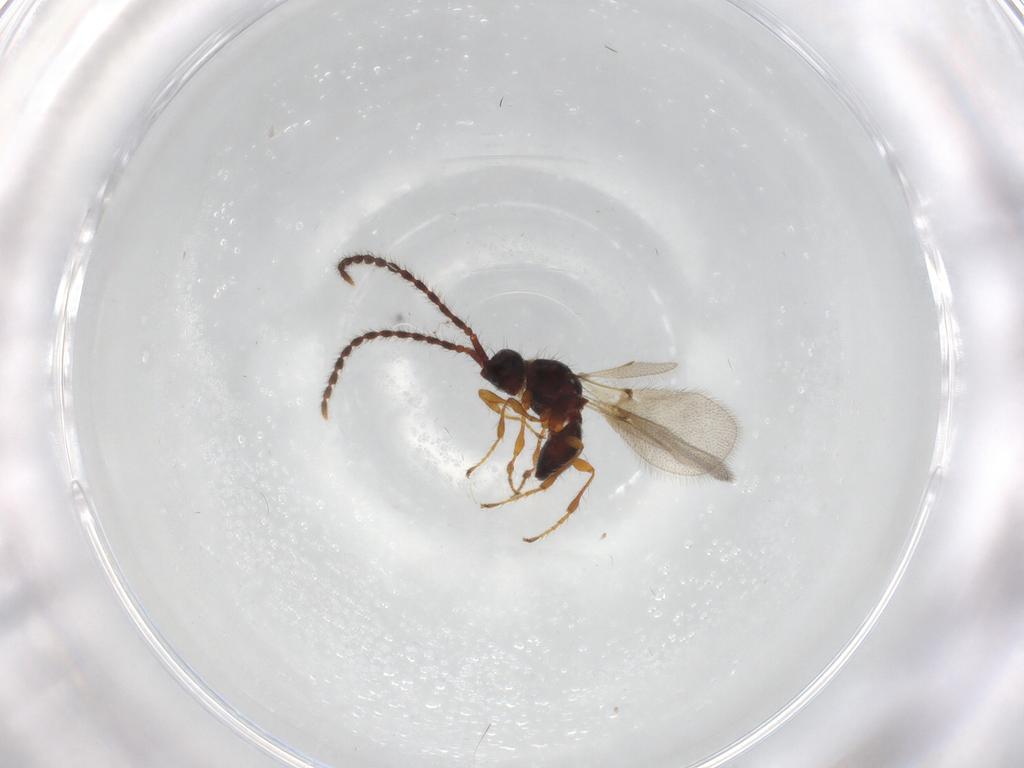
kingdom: Animalia
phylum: Arthropoda
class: Insecta
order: Hymenoptera
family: Diapriidae
